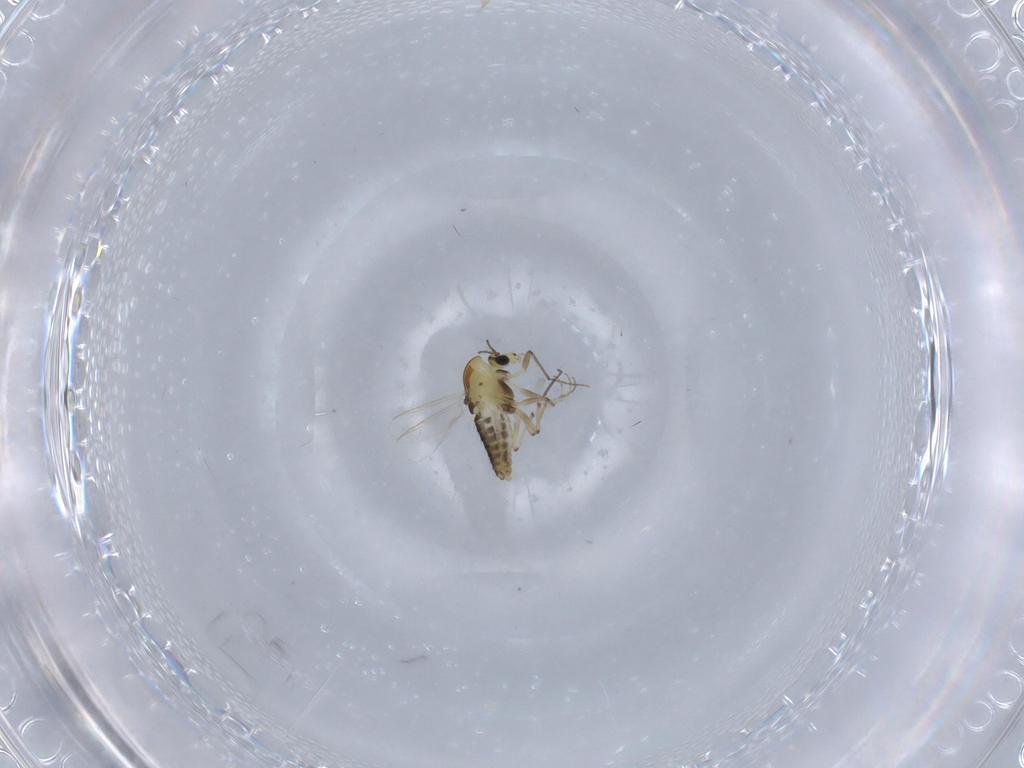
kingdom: Animalia
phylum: Arthropoda
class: Insecta
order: Diptera
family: Chironomidae
